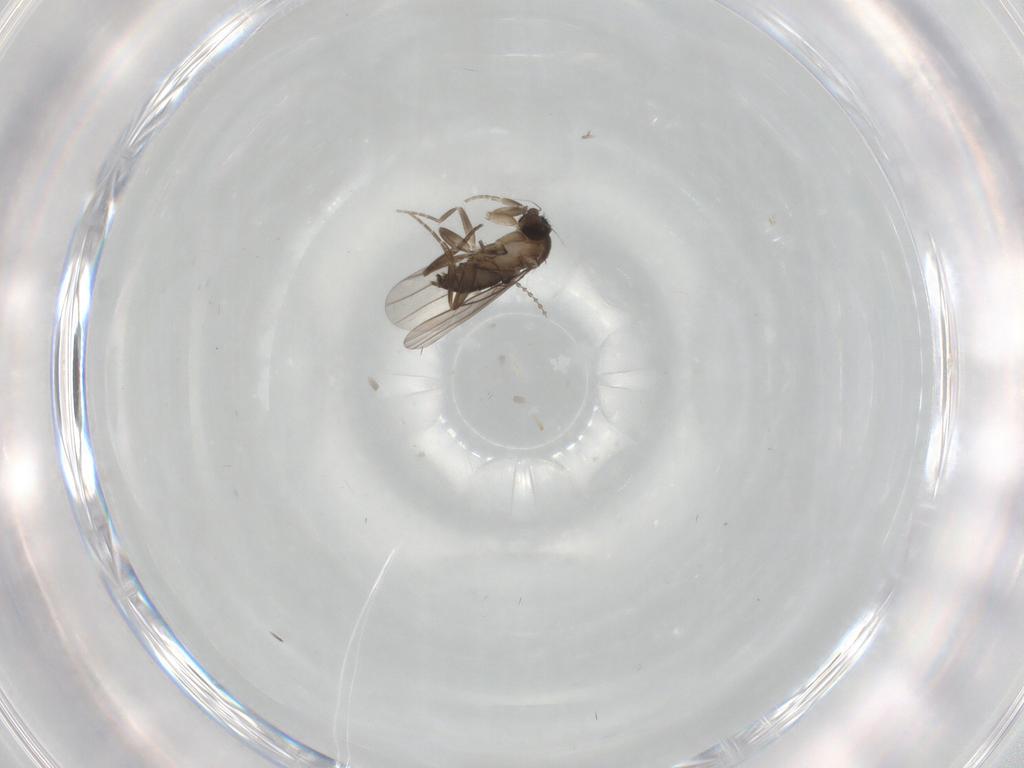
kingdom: Animalia
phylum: Arthropoda
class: Insecta
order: Diptera
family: Cecidomyiidae
